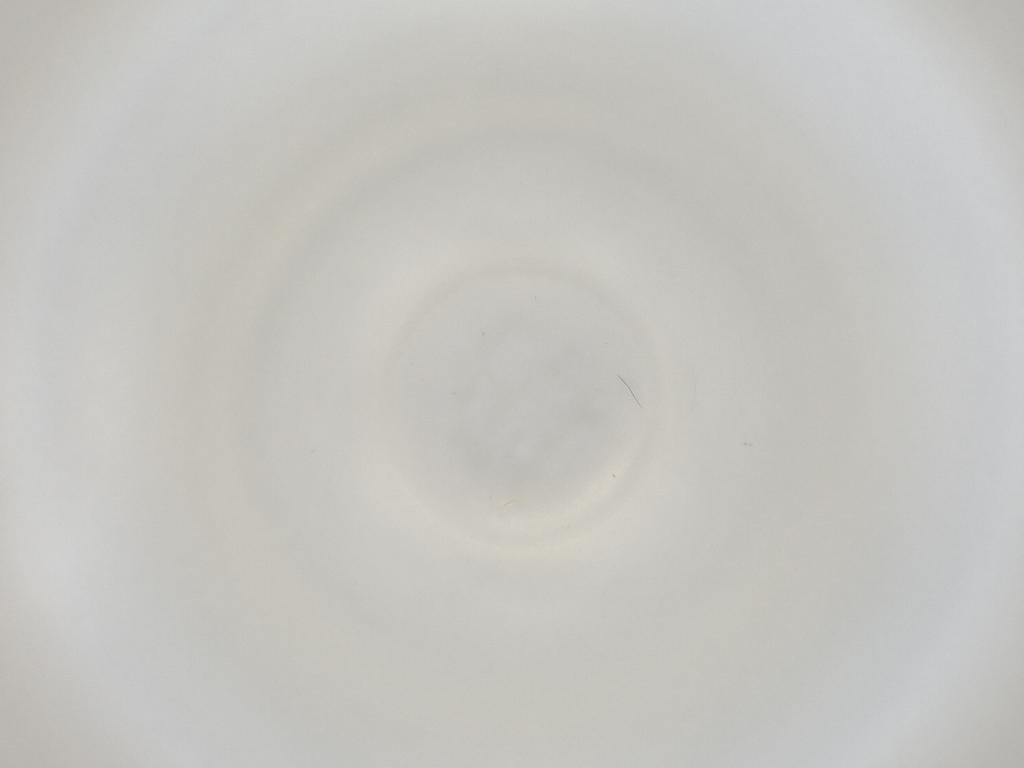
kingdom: Animalia
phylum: Arthropoda
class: Insecta
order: Diptera
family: Cecidomyiidae
